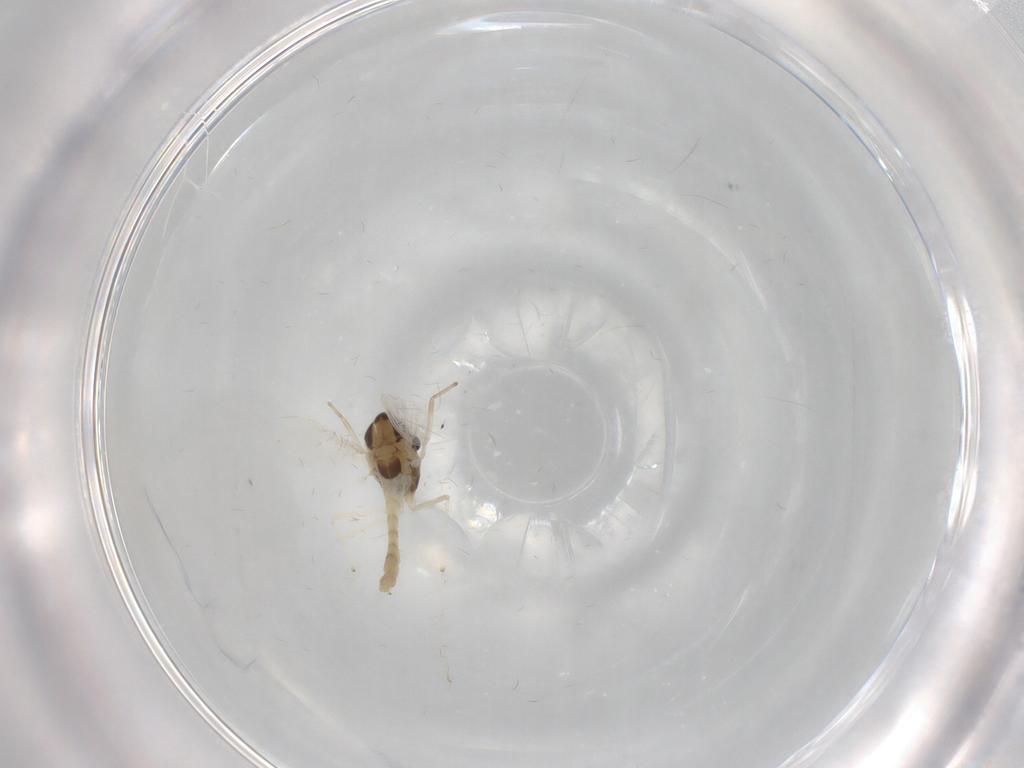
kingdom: Animalia
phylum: Arthropoda
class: Insecta
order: Diptera
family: Chironomidae
